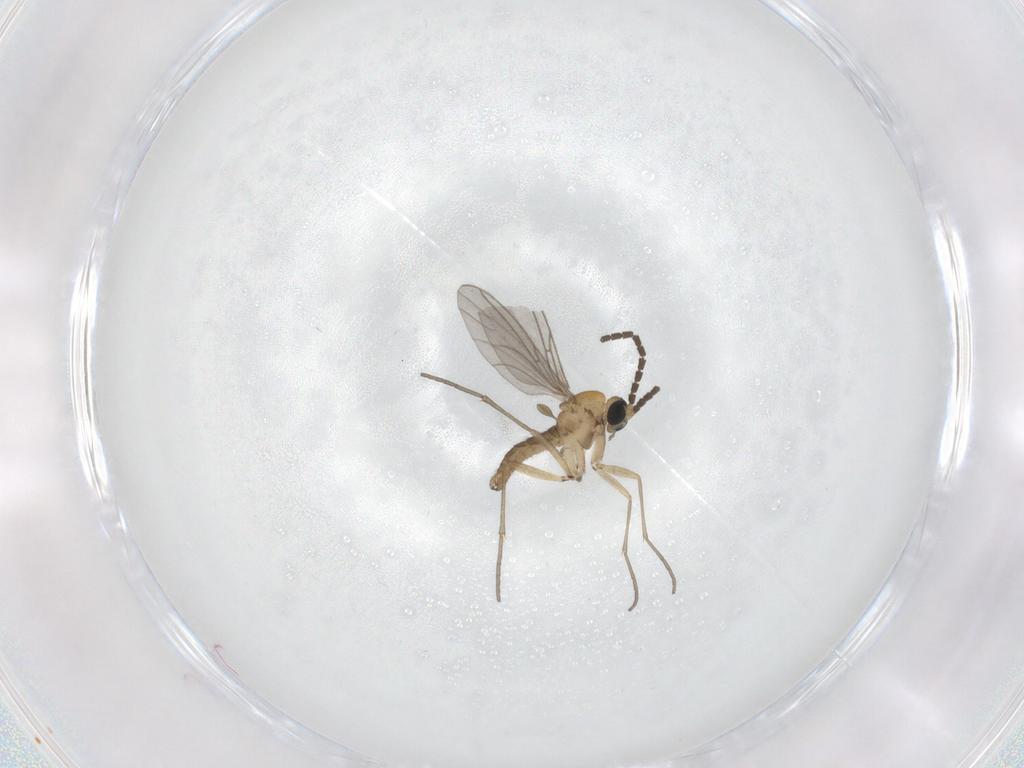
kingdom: Animalia
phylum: Arthropoda
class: Insecta
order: Diptera
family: Sciaridae
